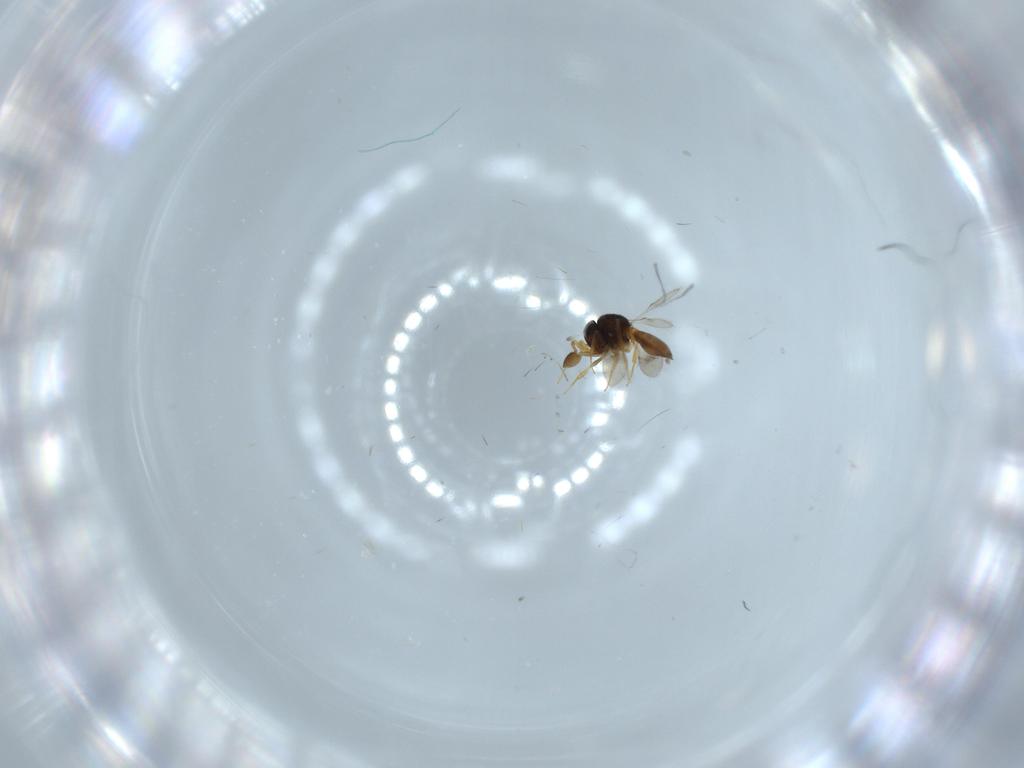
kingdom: Animalia
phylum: Arthropoda
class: Insecta
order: Hymenoptera
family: Scelionidae
